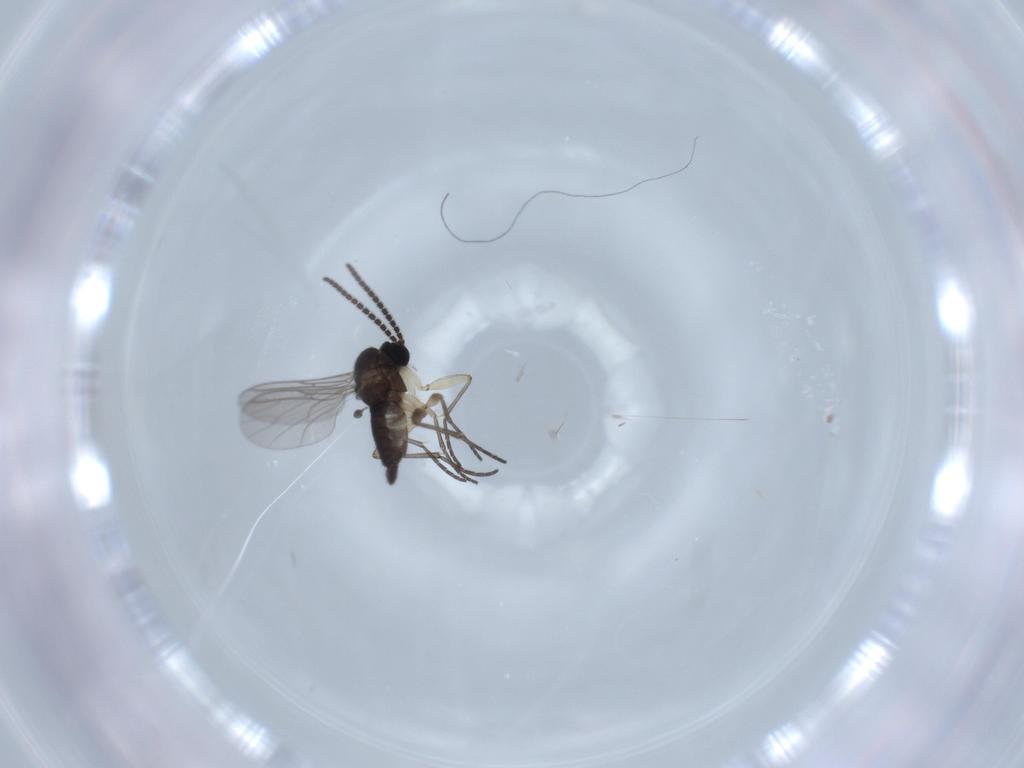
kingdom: Animalia
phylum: Arthropoda
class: Insecta
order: Diptera
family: Sciaridae
